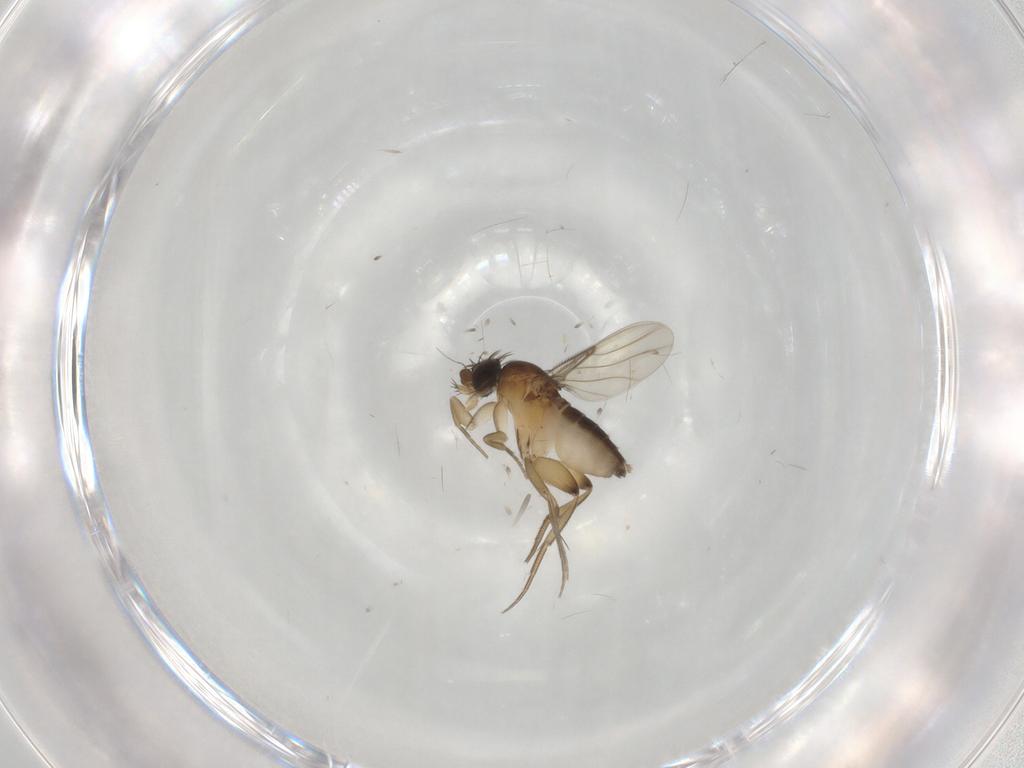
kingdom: Animalia
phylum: Arthropoda
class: Insecta
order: Diptera
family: Phoridae
